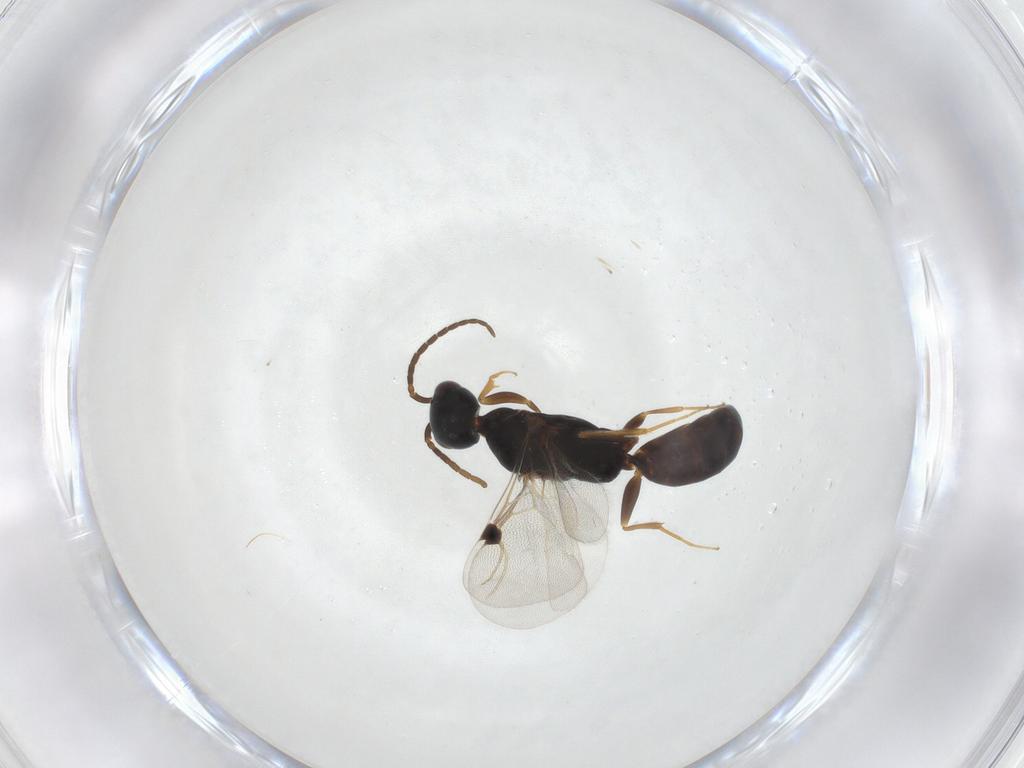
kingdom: Animalia
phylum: Arthropoda
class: Insecta
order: Hymenoptera
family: Bethylidae
